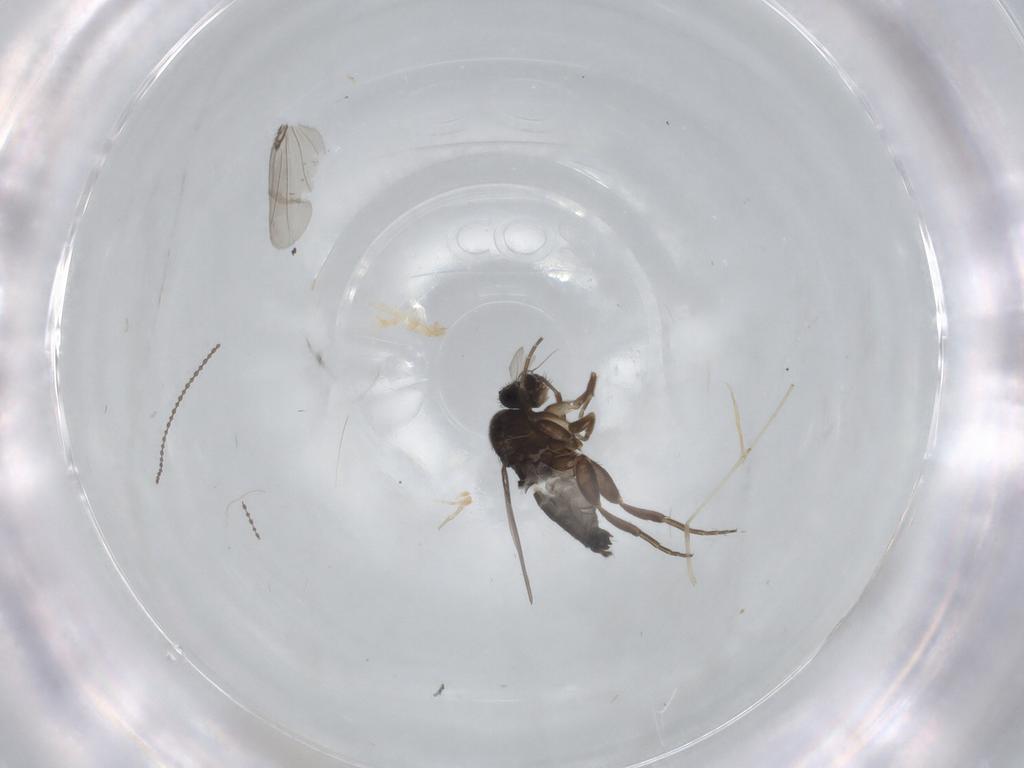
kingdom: Animalia
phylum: Arthropoda
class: Insecta
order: Diptera
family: Phoridae
